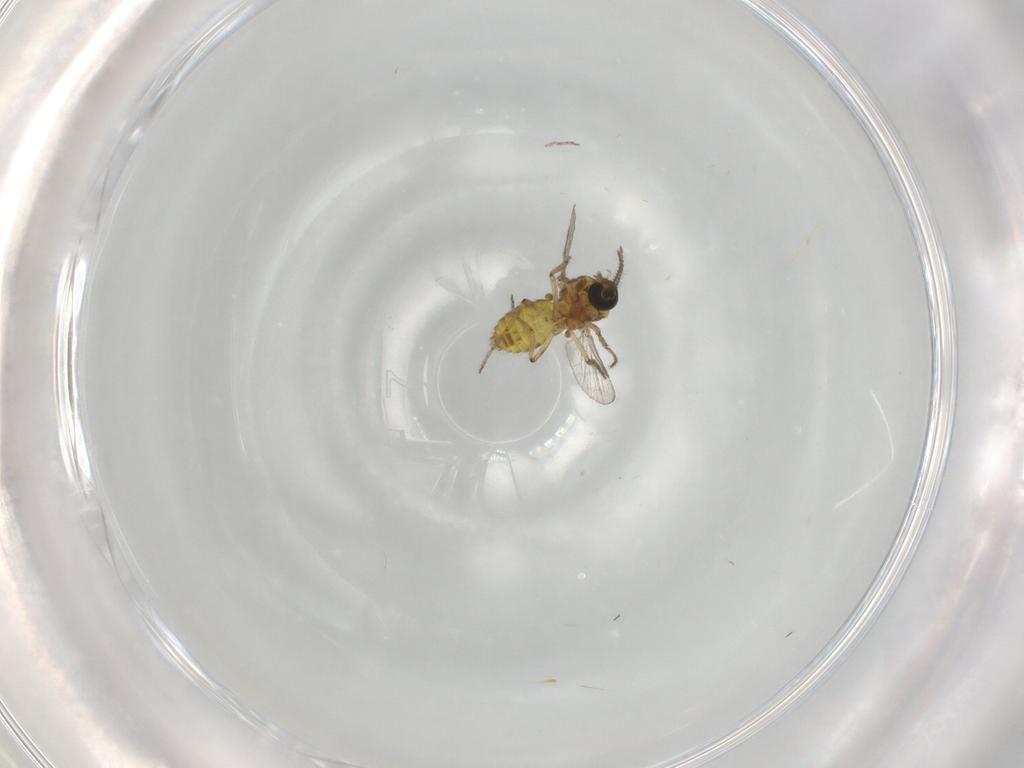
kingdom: Animalia
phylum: Arthropoda
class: Insecta
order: Diptera
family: Ceratopogonidae
